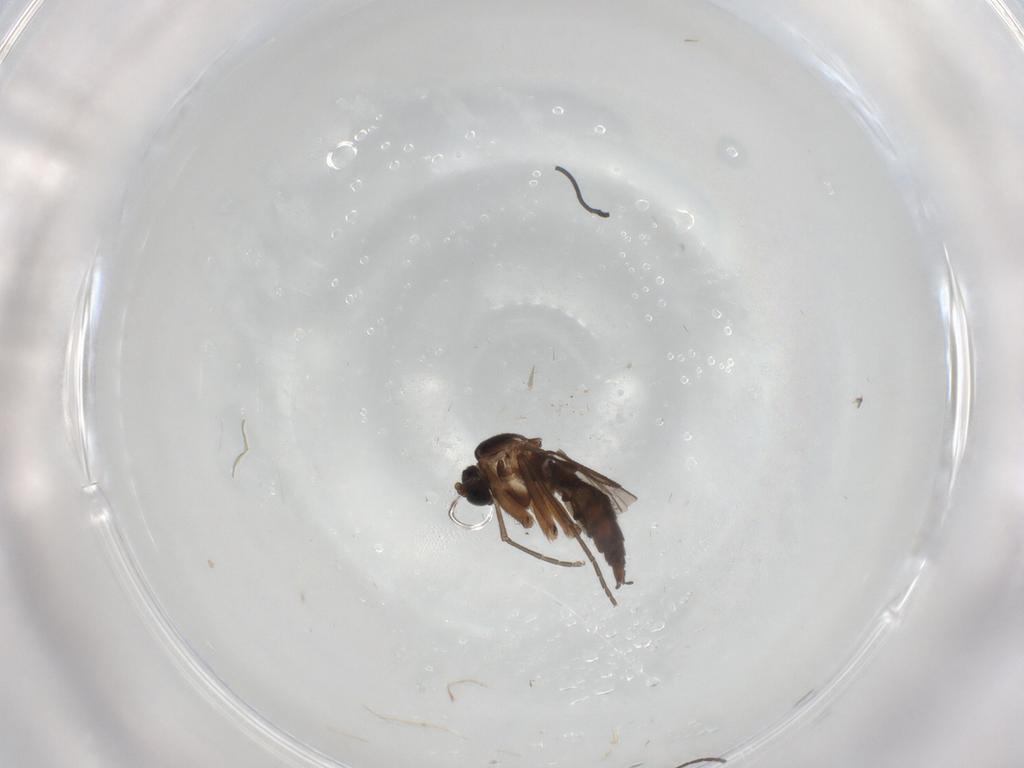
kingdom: Animalia
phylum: Arthropoda
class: Insecta
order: Diptera
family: Sciaridae
